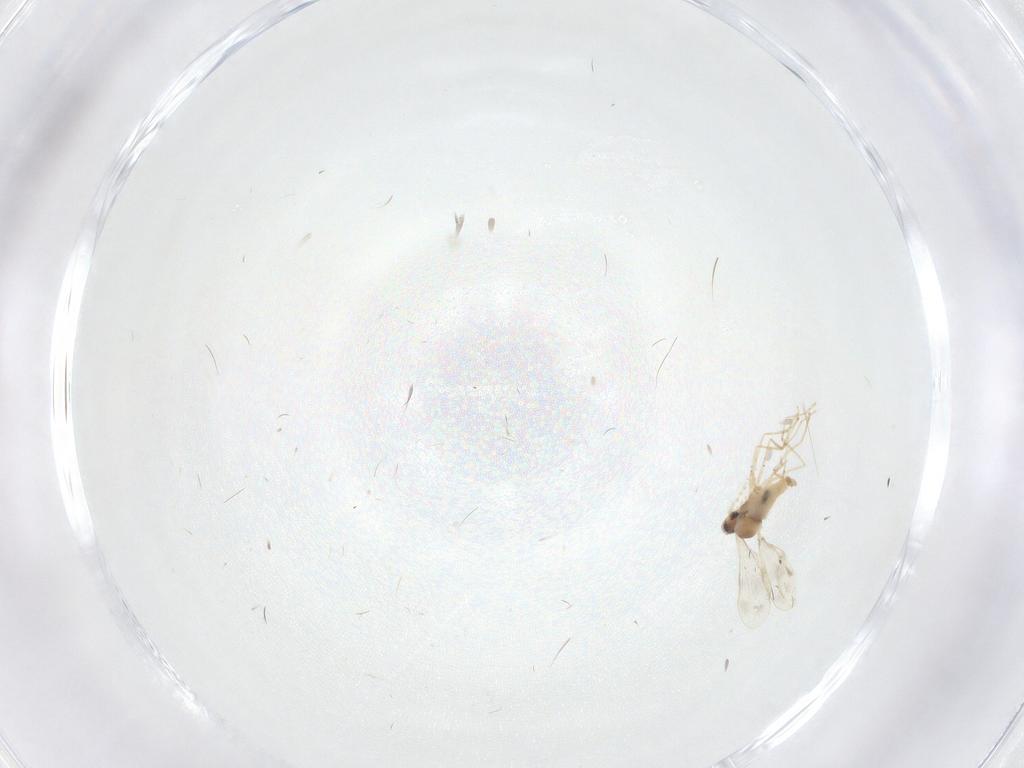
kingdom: Animalia
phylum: Arthropoda
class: Insecta
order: Diptera
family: Cecidomyiidae
